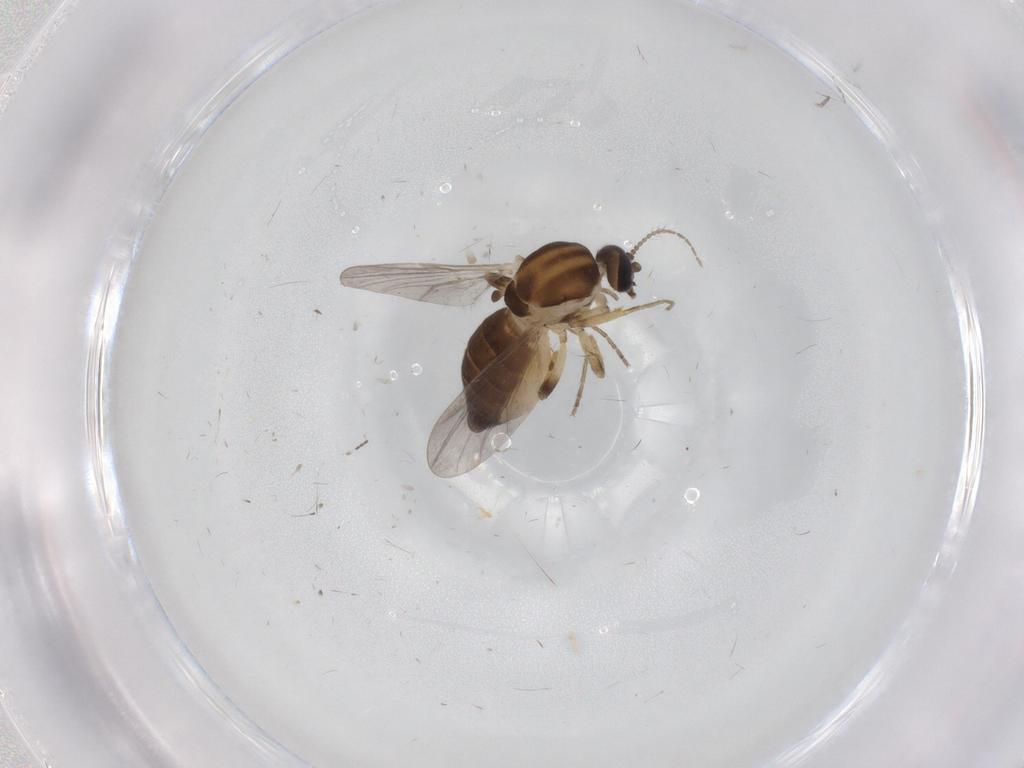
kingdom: Animalia
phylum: Arthropoda
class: Insecta
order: Diptera
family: Ceratopogonidae
